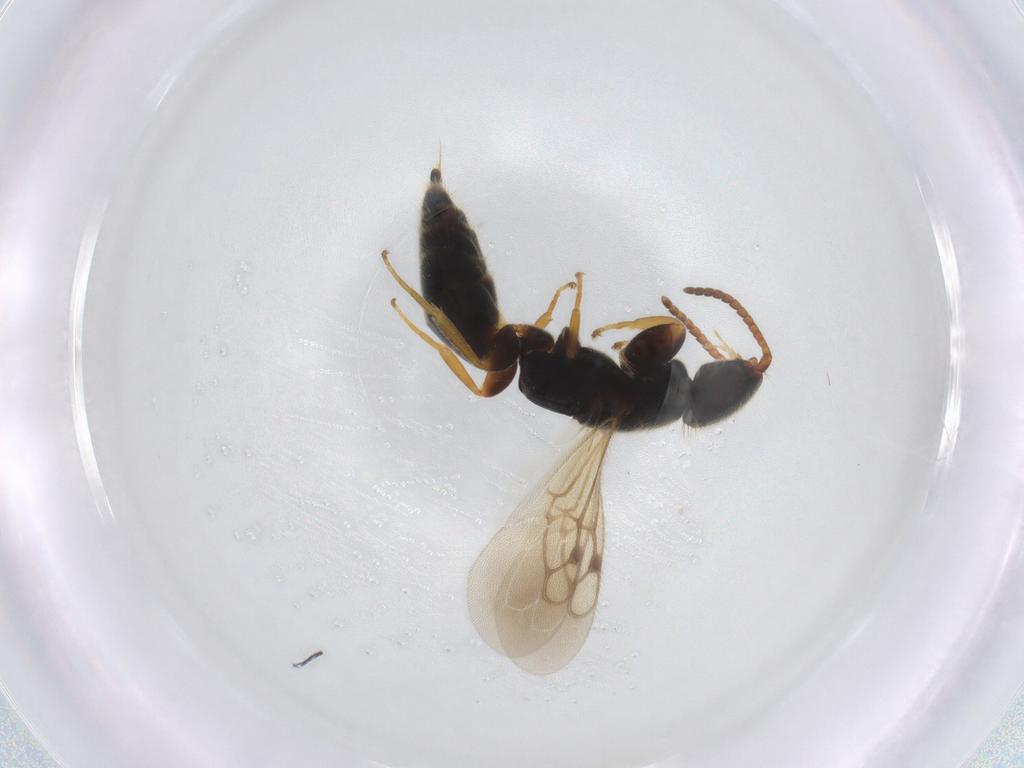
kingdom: Animalia
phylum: Arthropoda
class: Insecta
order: Hymenoptera
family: Bethylidae
